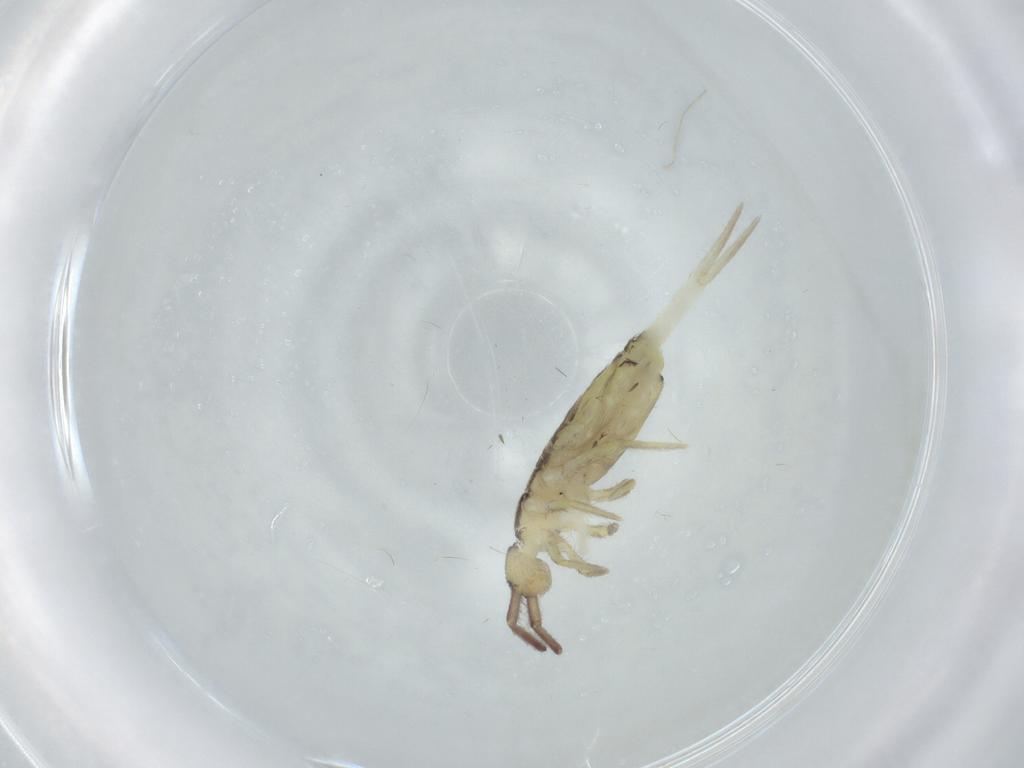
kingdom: Animalia
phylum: Arthropoda
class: Collembola
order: Entomobryomorpha
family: Entomobryidae
